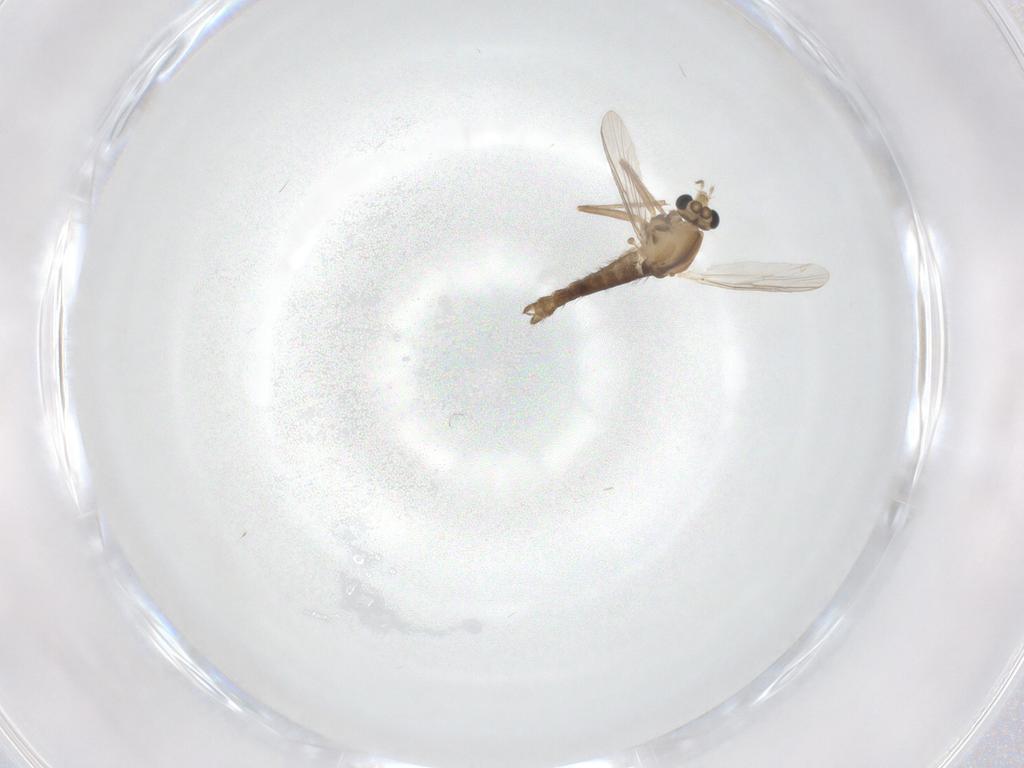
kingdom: Animalia
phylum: Arthropoda
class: Insecta
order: Diptera
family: Chironomidae
